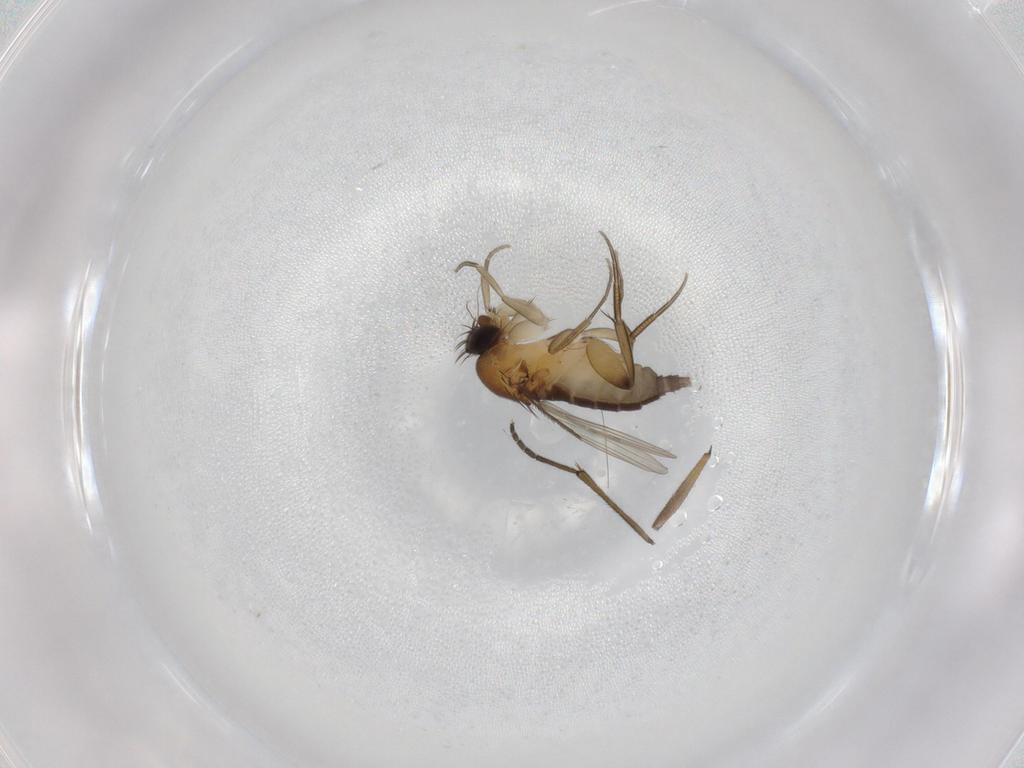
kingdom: Animalia
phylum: Arthropoda
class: Insecta
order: Diptera
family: Phoridae
